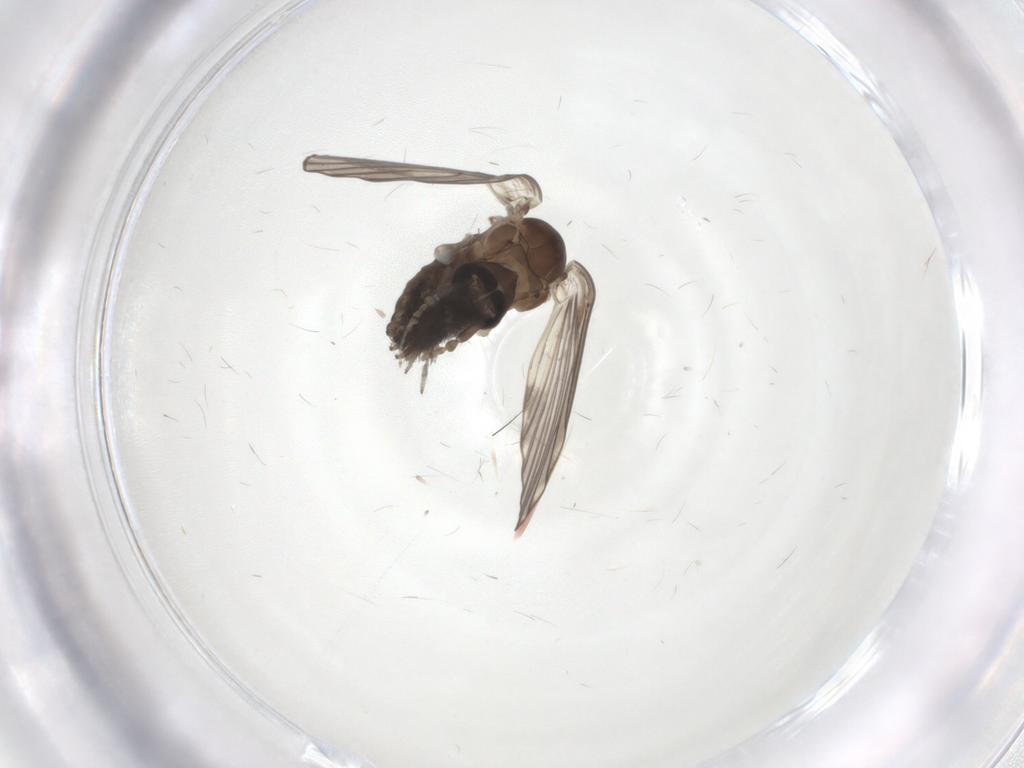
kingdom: Animalia
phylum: Arthropoda
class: Insecta
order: Diptera
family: Psychodidae
